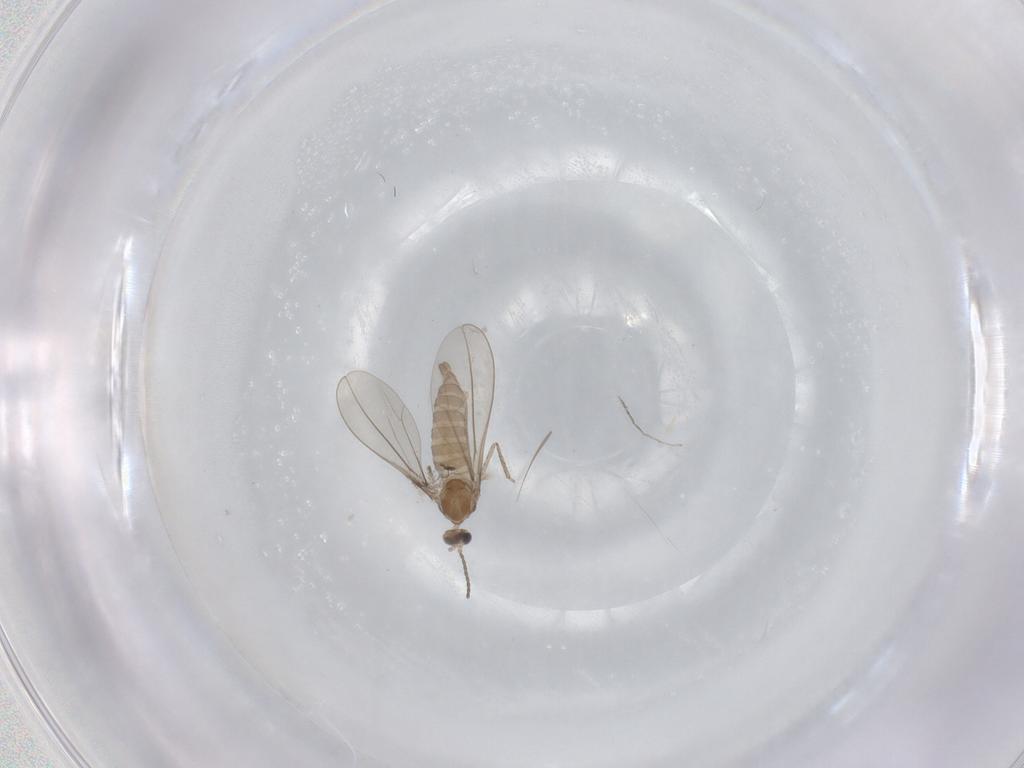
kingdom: Animalia
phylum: Arthropoda
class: Insecta
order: Diptera
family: Cecidomyiidae
